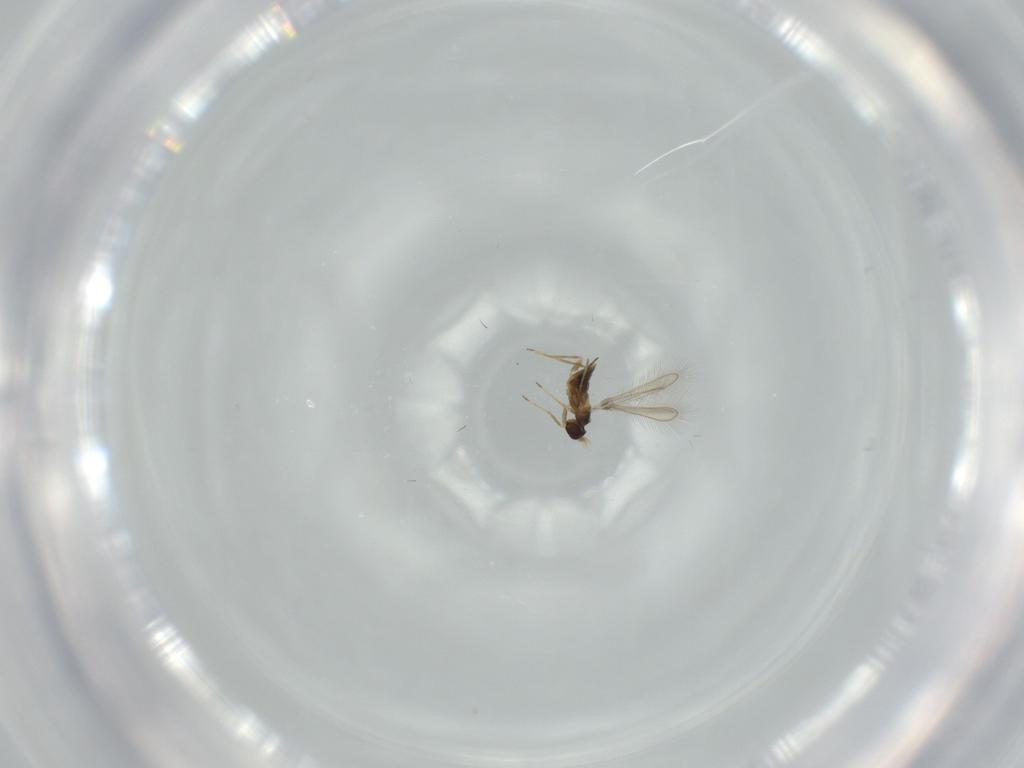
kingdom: Animalia
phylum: Arthropoda
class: Insecta
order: Hymenoptera
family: Mymaridae
